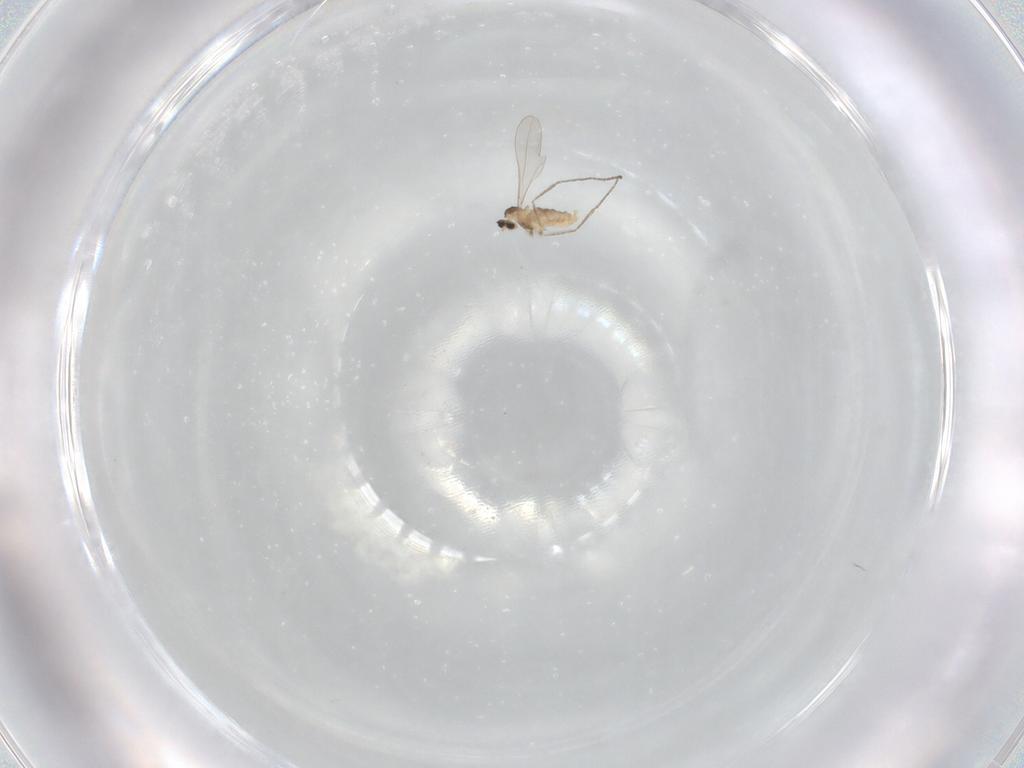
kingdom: Animalia
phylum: Arthropoda
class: Insecta
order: Diptera
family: Cecidomyiidae
